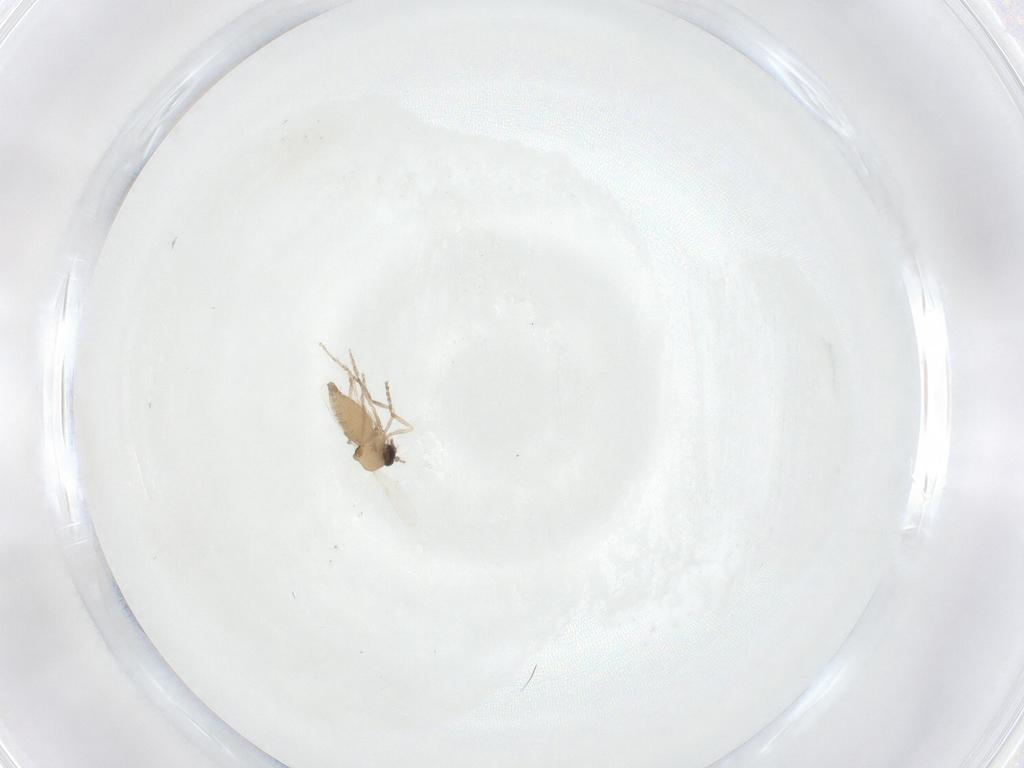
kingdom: Animalia
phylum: Arthropoda
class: Insecta
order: Diptera
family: Ceratopogonidae
